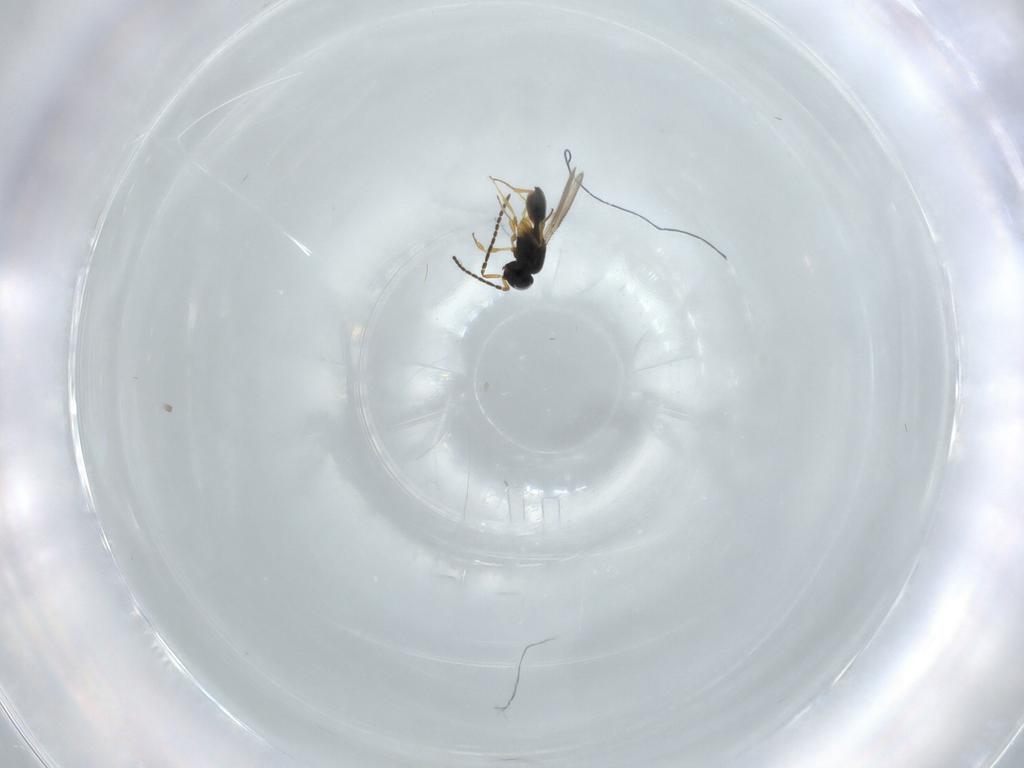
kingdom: Animalia
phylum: Arthropoda
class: Insecta
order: Hymenoptera
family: Scelionidae
